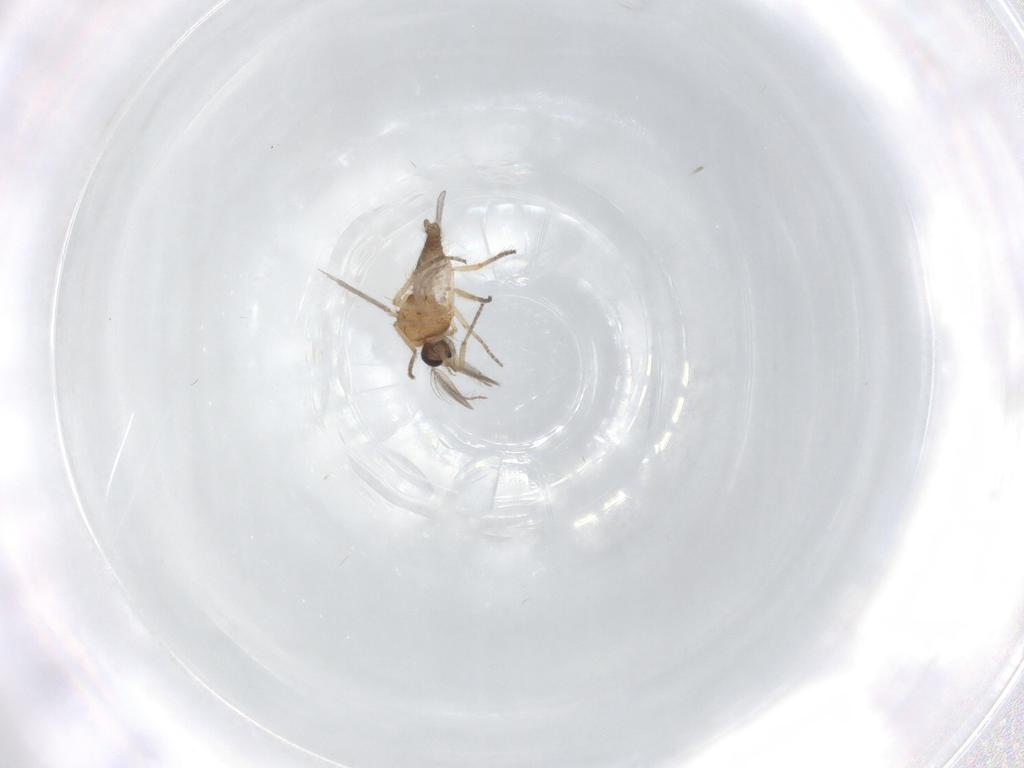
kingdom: Animalia
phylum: Arthropoda
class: Insecta
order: Diptera
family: Ceratopogonidae
